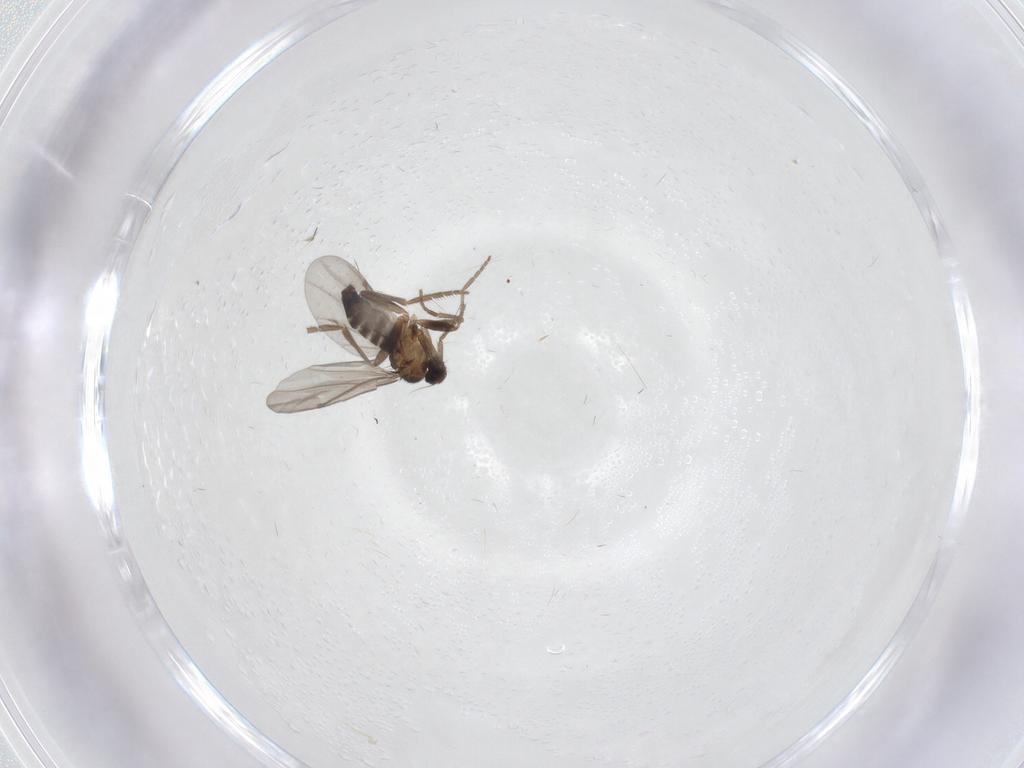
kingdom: Animalia
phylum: Arthropoda
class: Insecta
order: Diptera
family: Phoridae
